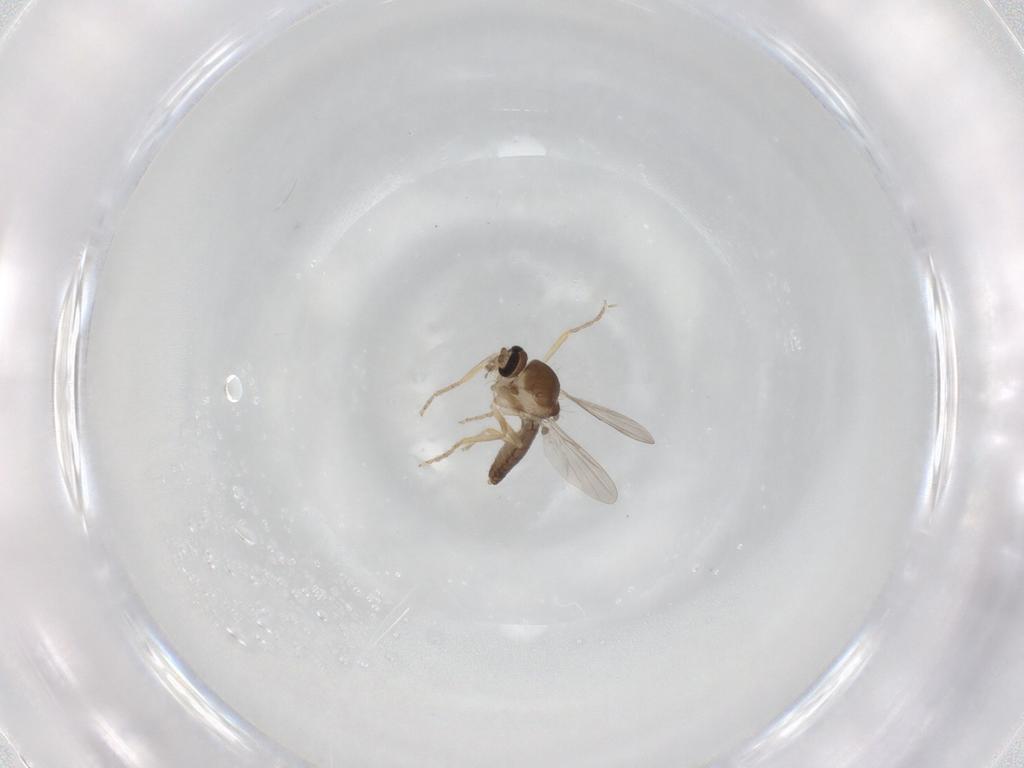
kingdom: Animalia
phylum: Arthropoda
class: Insecta
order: Diptera
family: Ceratopogonidae
